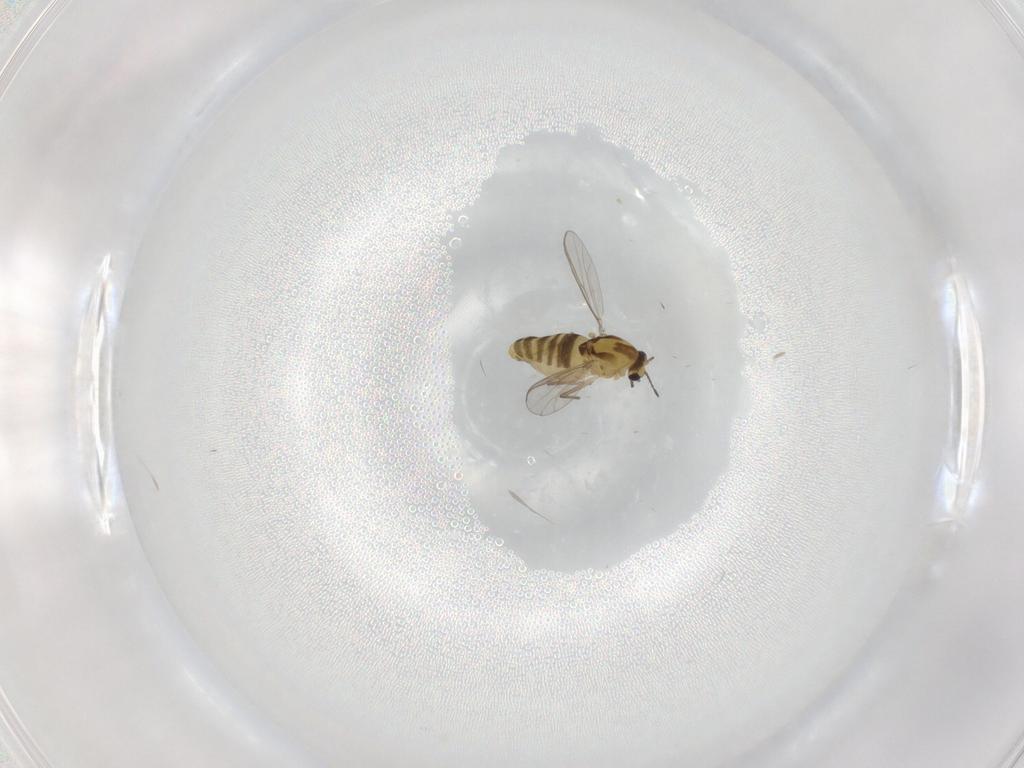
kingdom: Animalia
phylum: Arthropoda
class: Insecta
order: Diptera
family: Chironomidae
